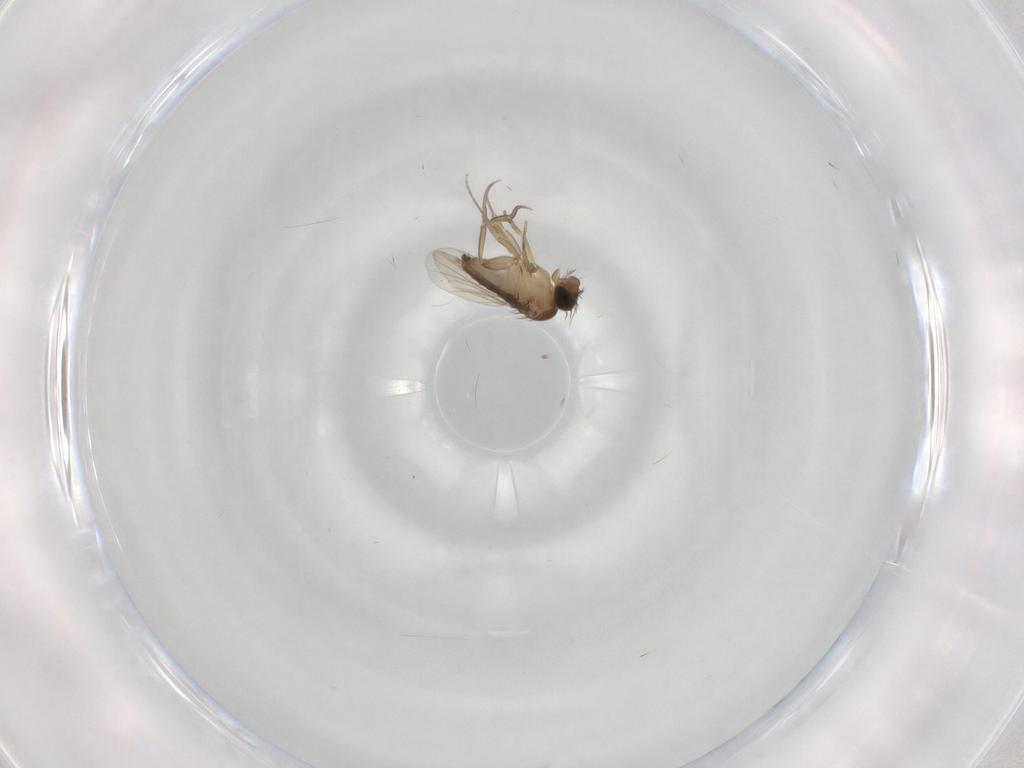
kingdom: Animalia
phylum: Arthropoda
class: Insecta
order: Diptera
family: Phoridae
